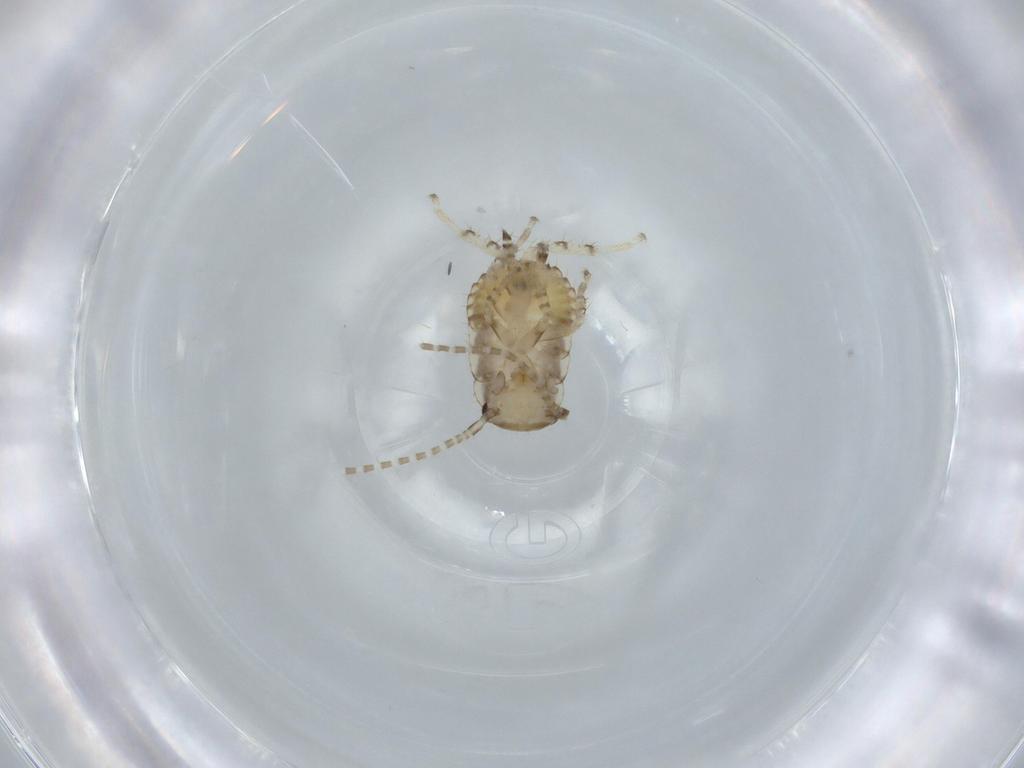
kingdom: Animalia
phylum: Arthropoda
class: Insecta
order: Blattodea
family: Ectobiidae
